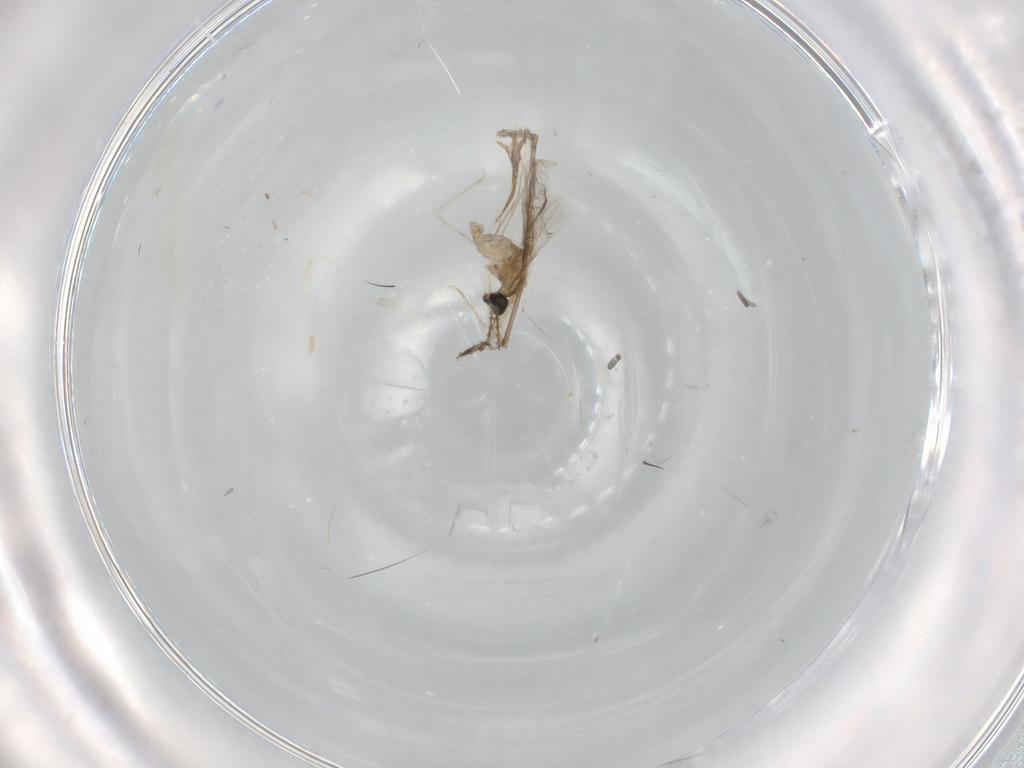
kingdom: Animalia
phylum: Arthropoda
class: Insecta
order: Diptera
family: Cecidomyiidae
